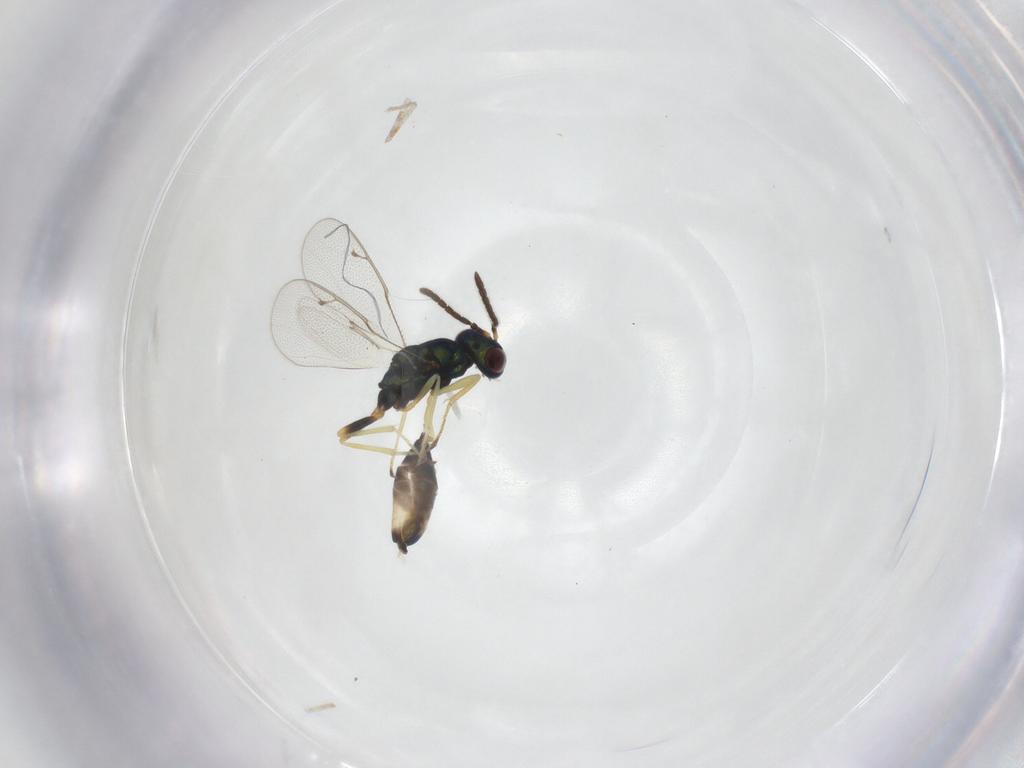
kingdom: Animalia
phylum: Arthropoda
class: Insecta
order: Hymenoptera
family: Pteromalidae
